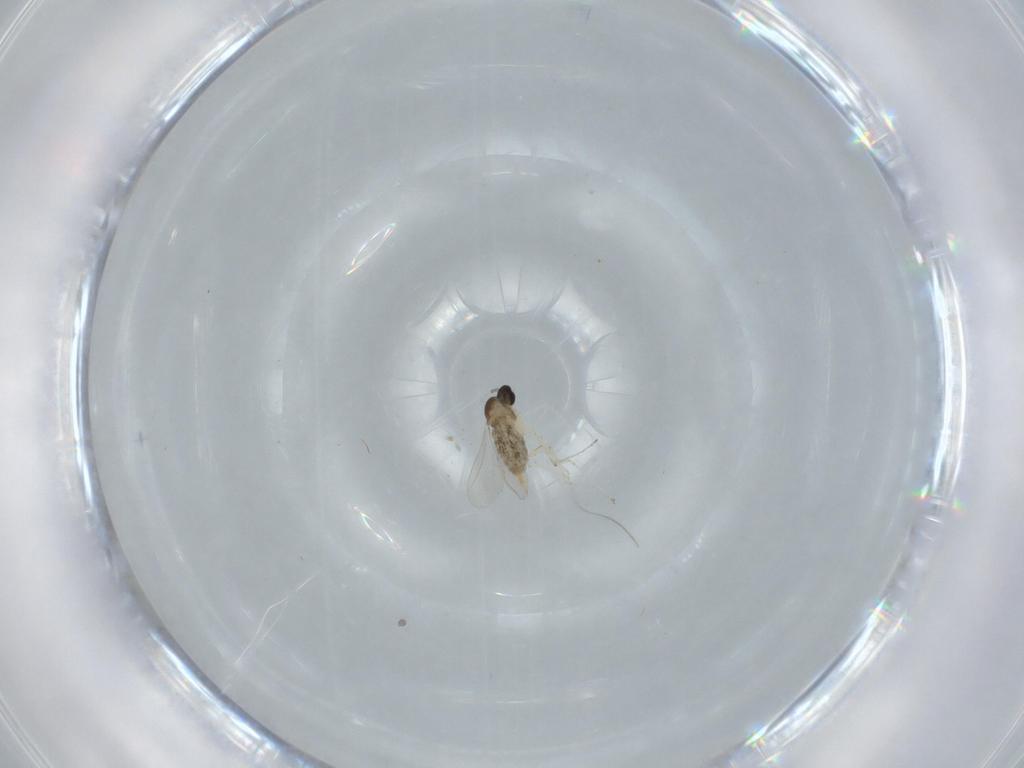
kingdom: Animalia
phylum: Arthropoda
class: Insecta
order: Diptera
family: Cecidomyiidae
